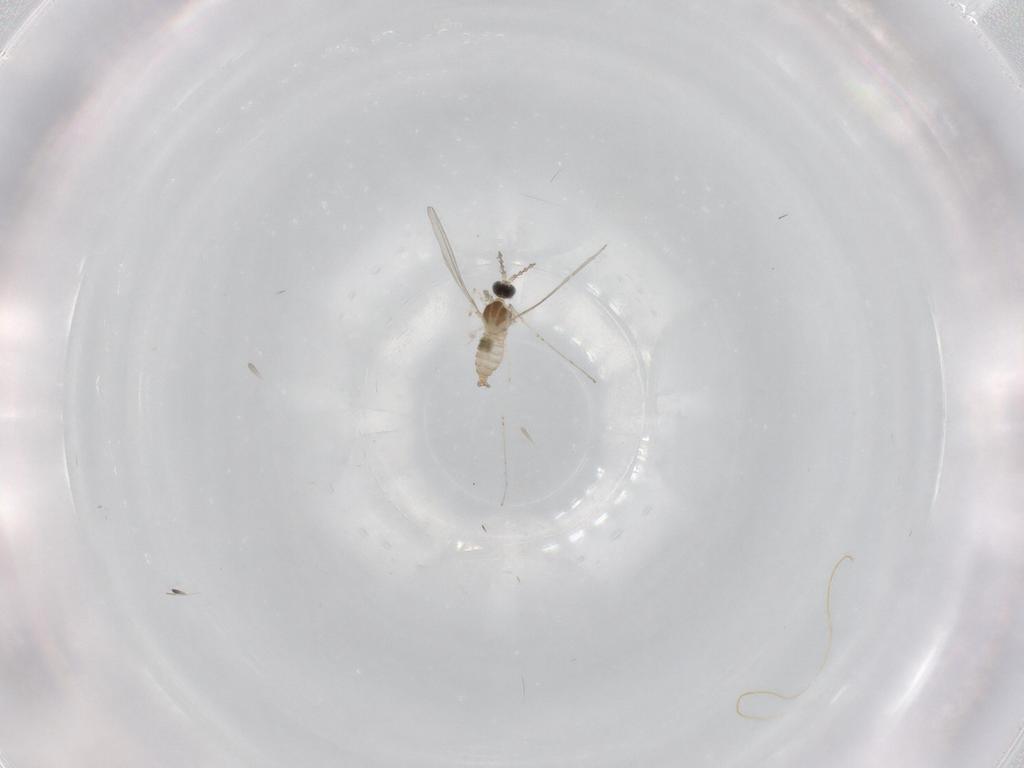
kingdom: Animalia
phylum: Arthropoda
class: Insecta
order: Diptera
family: Cecidomyiidae
